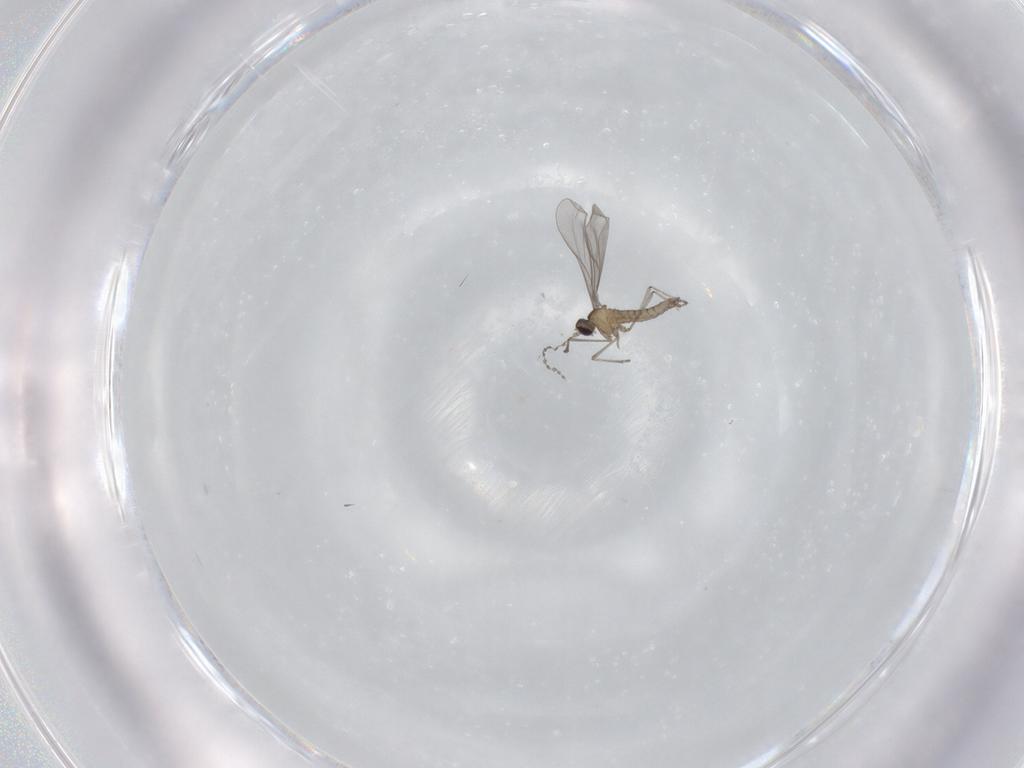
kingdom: Animalia
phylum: Arthropoda
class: Insecta
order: Diptera
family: Cecidomyiidae
